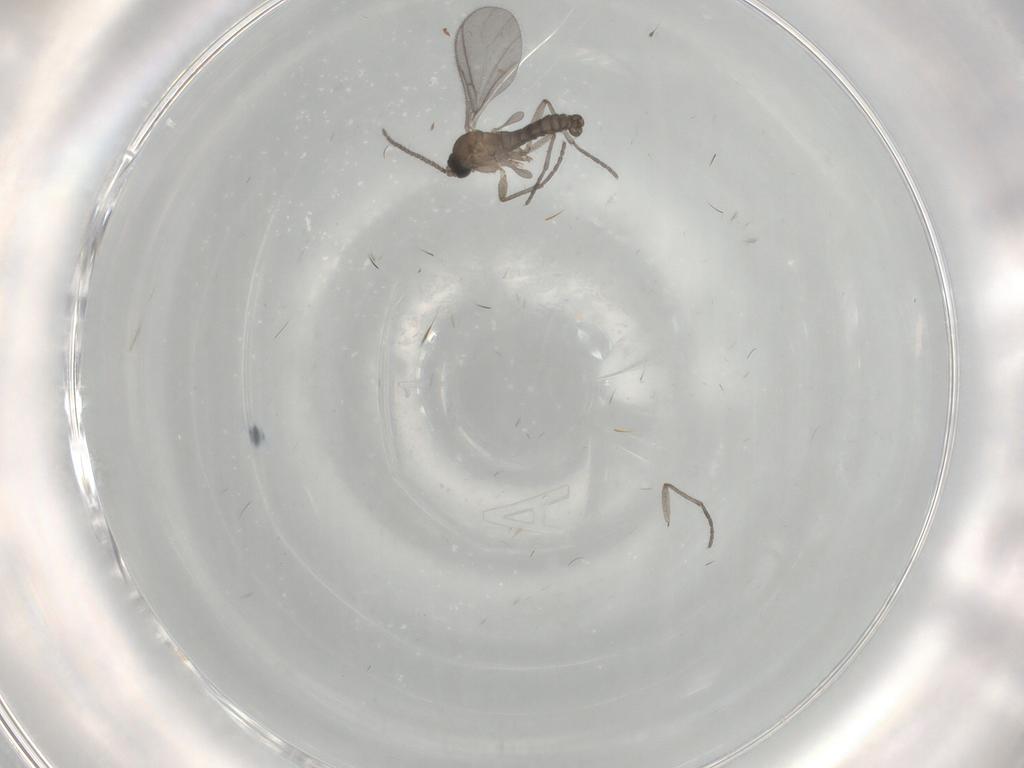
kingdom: Animalia
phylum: Arthropoda
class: Insecta
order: Diptera
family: Sciaridae
